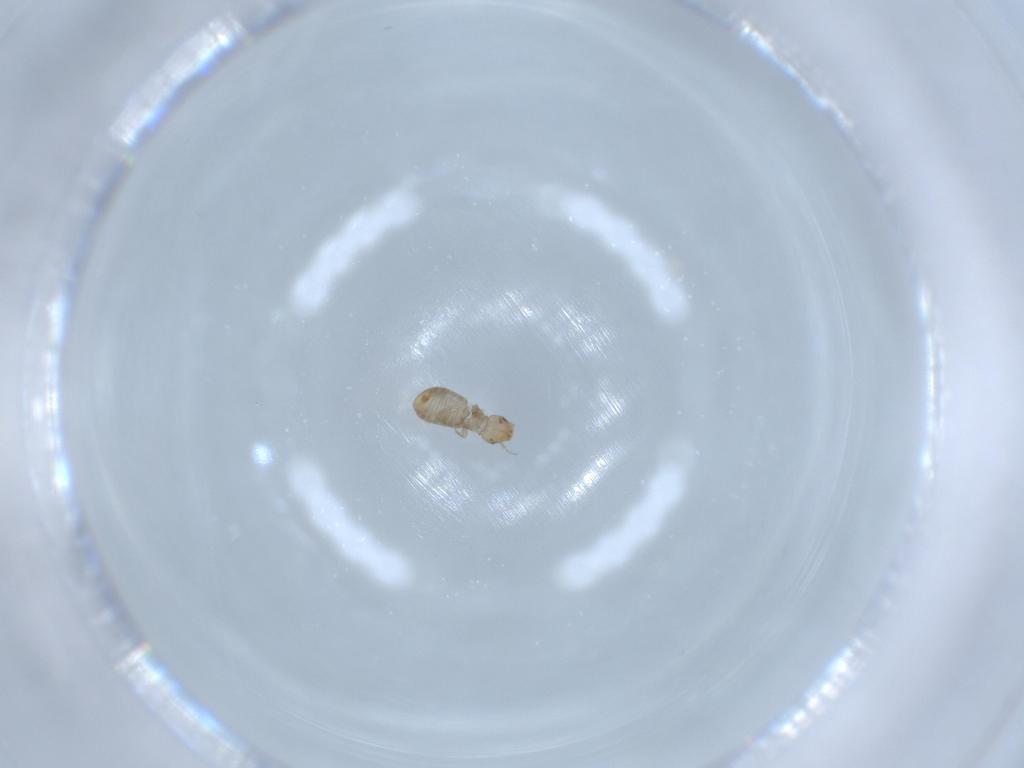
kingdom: Animalia
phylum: Arthropoda
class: Insecta
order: Psocodea
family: Liposcelididae
